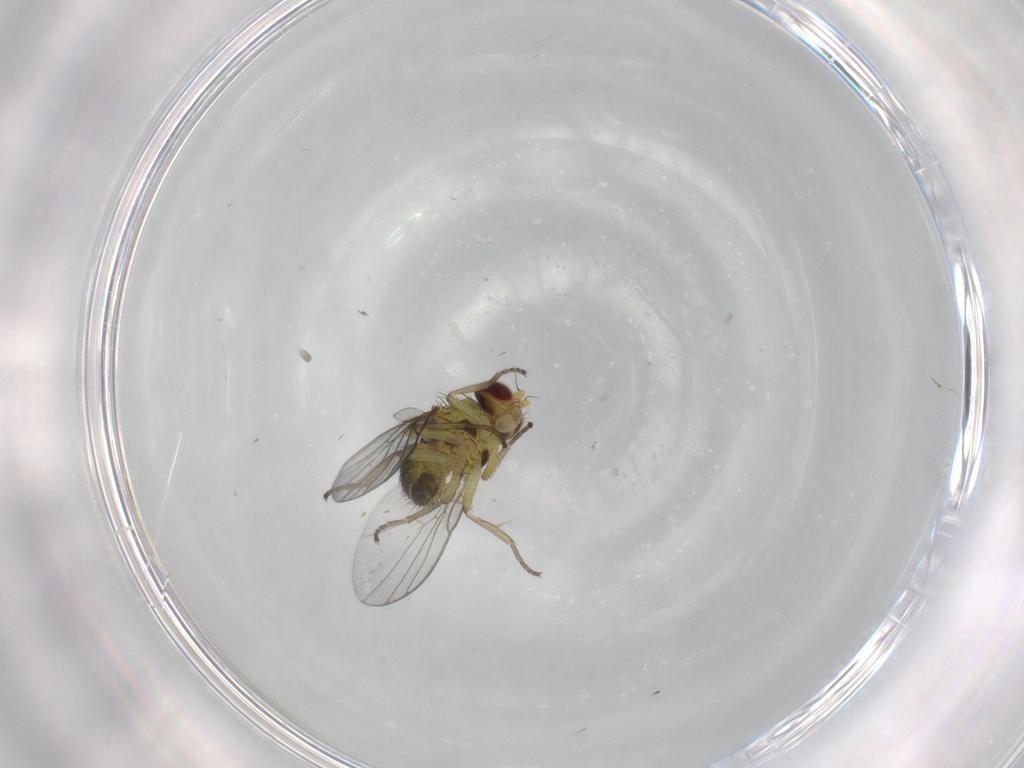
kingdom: Animalia
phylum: Arthropoda
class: Insecta
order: Diptera
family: Agromyzidae
